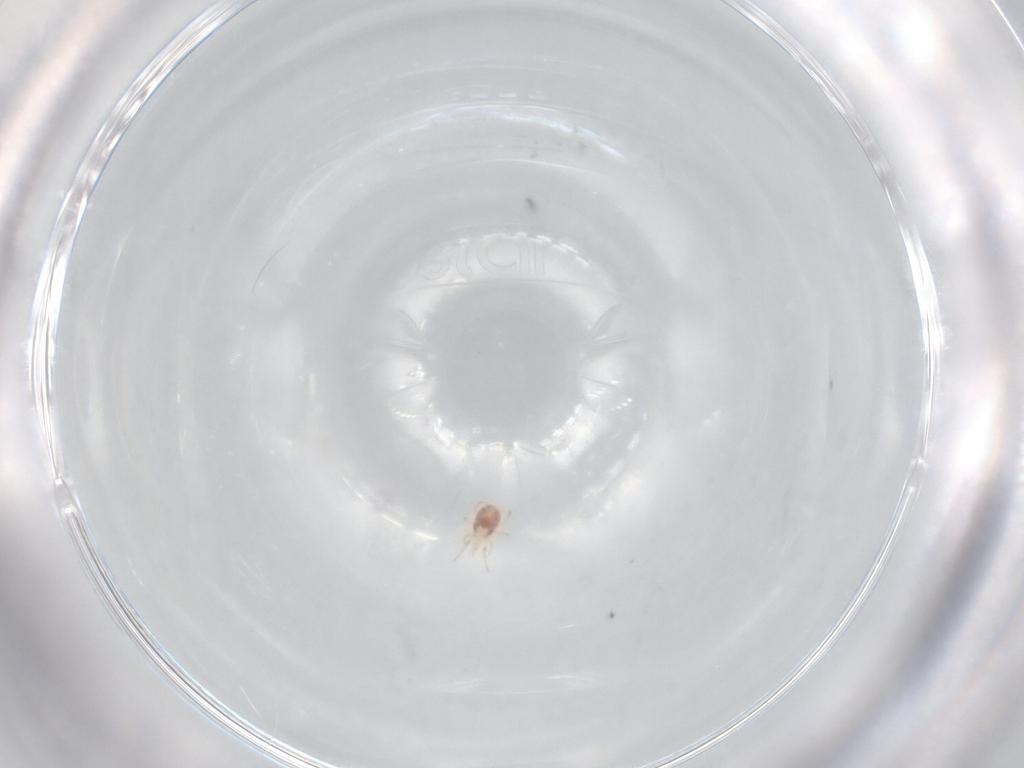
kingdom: Animalia
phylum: Arthropoda
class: Arachnida
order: Mesostigmata
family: Phytoseiidae
